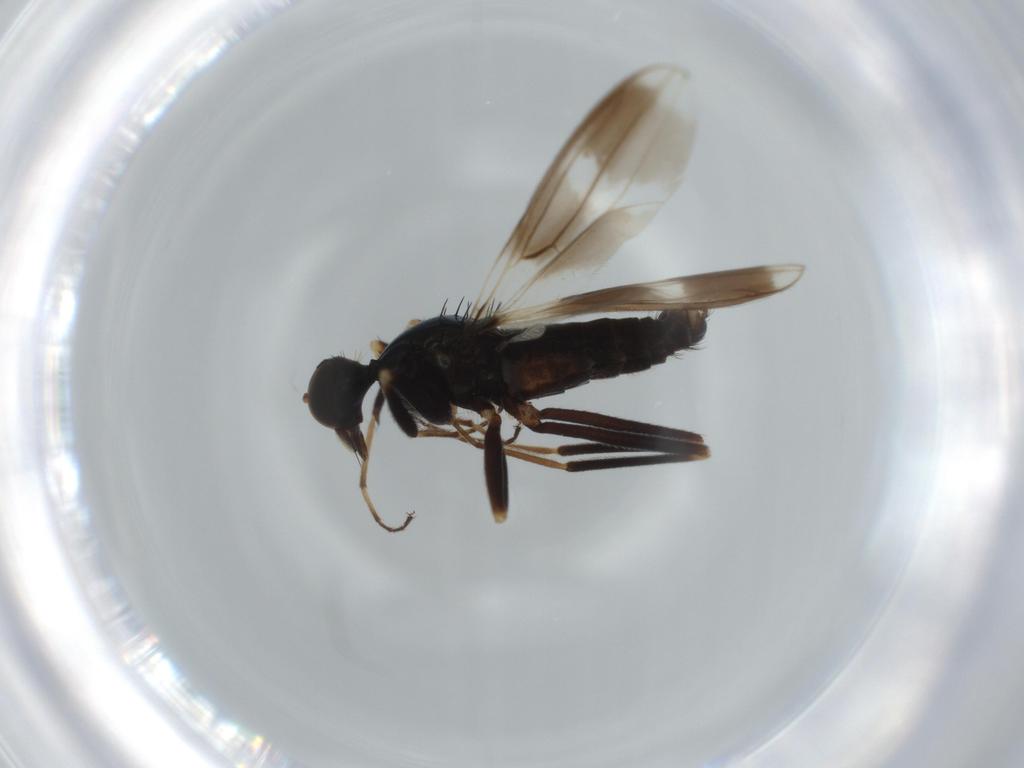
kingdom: Animalia
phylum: Arthropoda
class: Insecta
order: Diptera
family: Hybotidae
